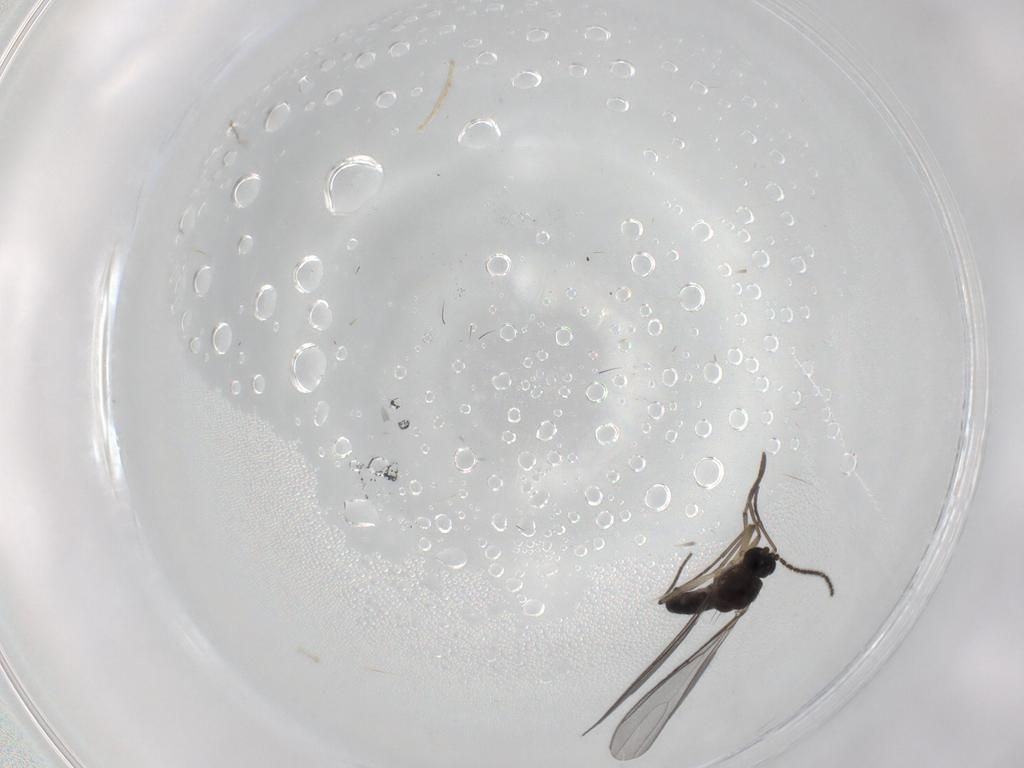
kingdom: Animalia
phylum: Arthropoda
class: Insecta
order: Diptera
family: Sciaridae
